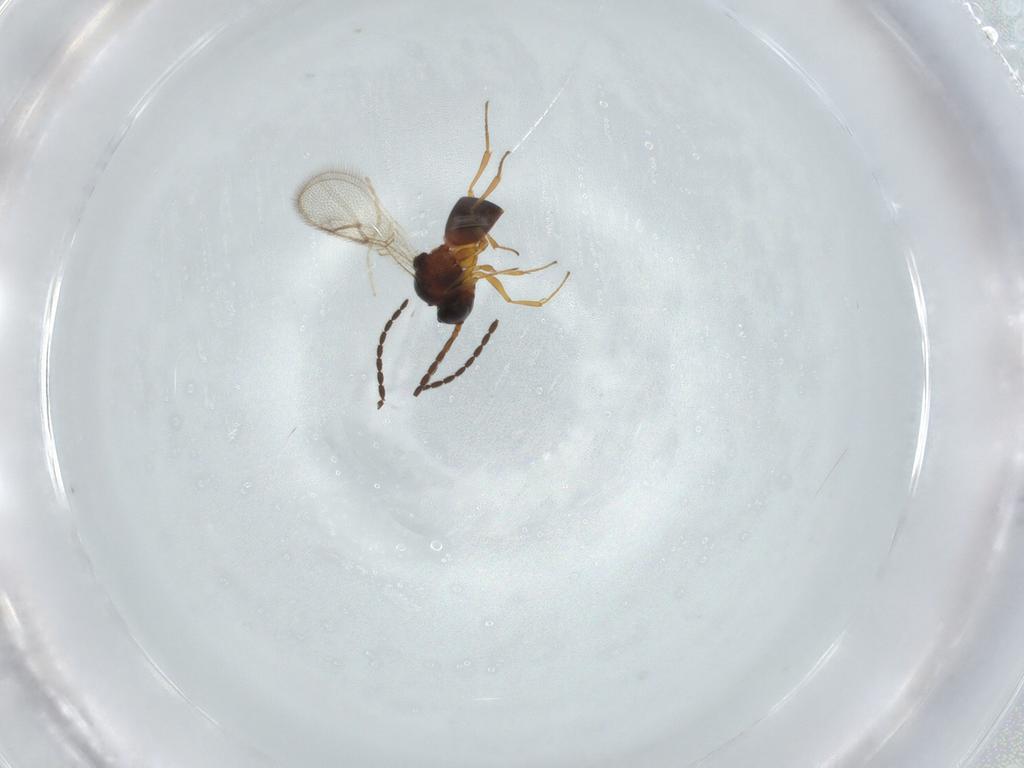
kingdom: Animalia
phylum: Arthropoda
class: Insecta
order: Hymenoptera
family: Figitidae
